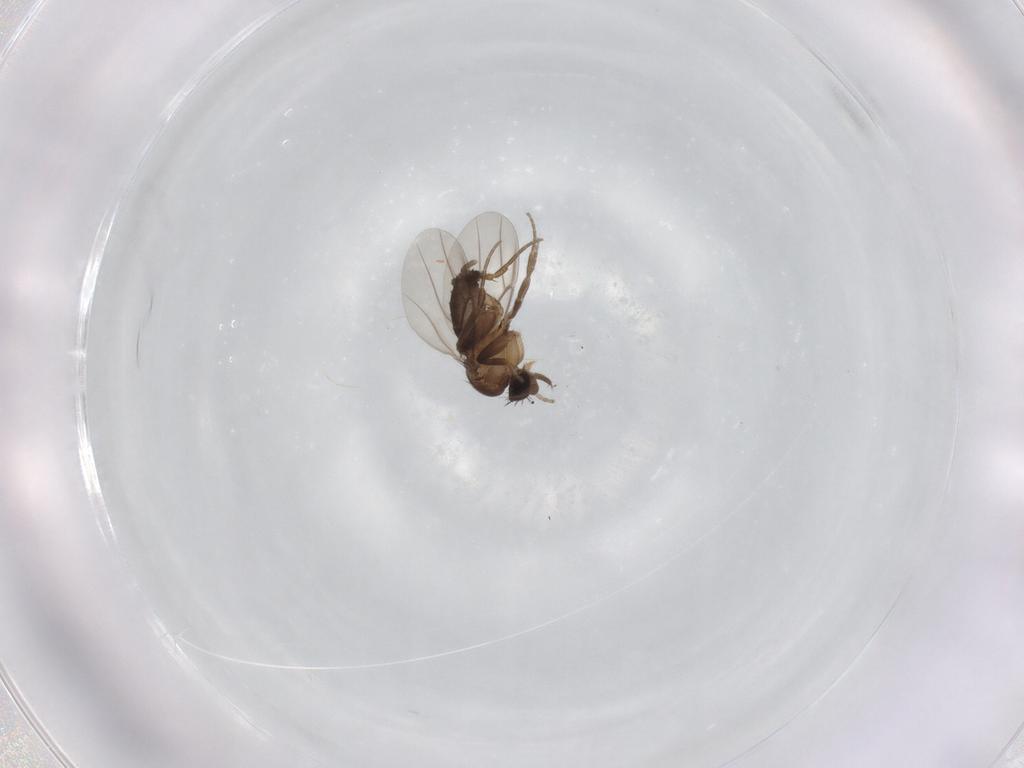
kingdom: Animalia
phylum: Arthropoda
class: Insecta
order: Diptera
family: Phoridae
